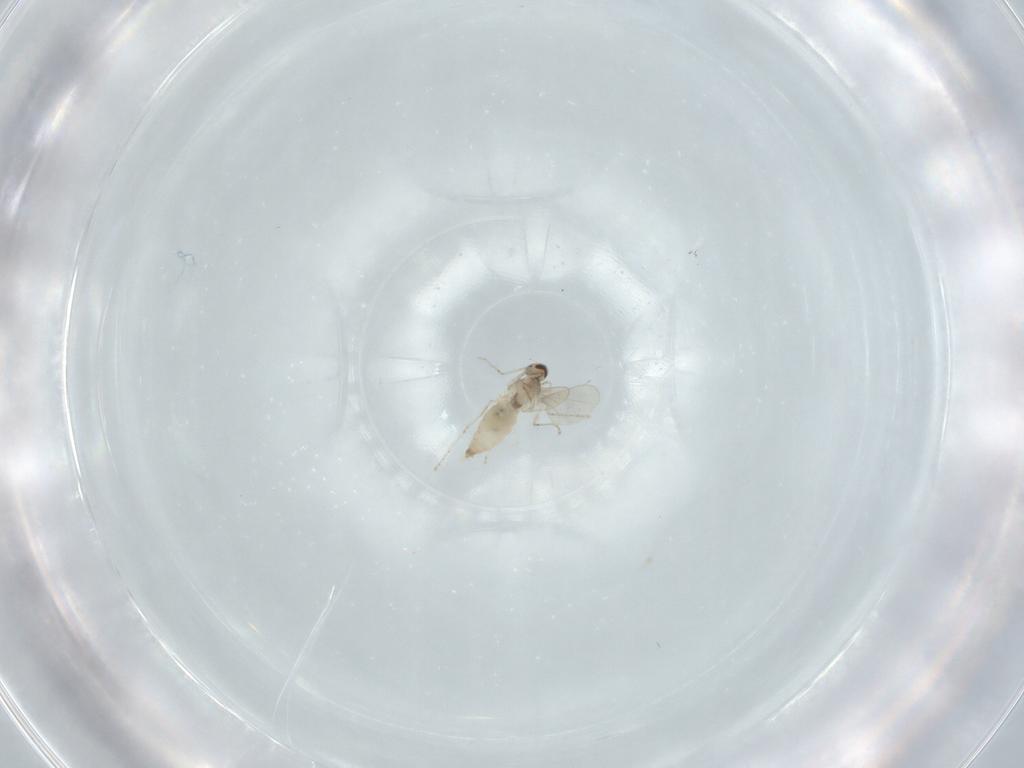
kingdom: Animalia
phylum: Arthropoda
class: Insecta
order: Diptera
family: Cecidomyiidae
